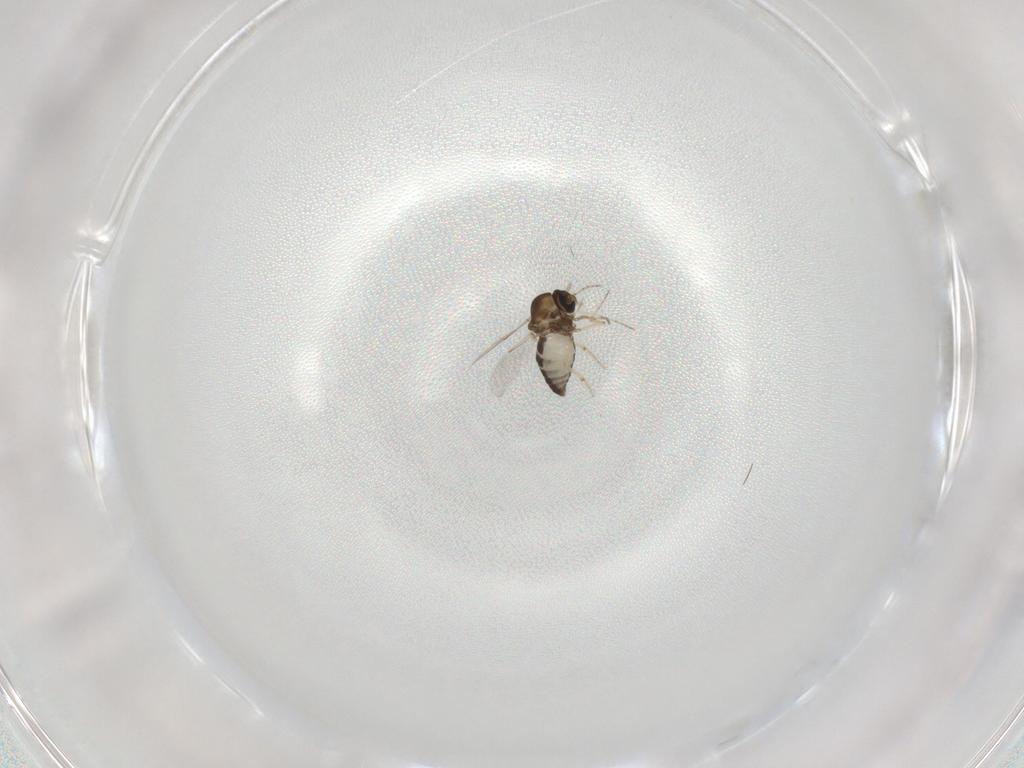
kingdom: Animalia
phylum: Arthropoda
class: Insecta
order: Diptera
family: Ceratopogonidae
